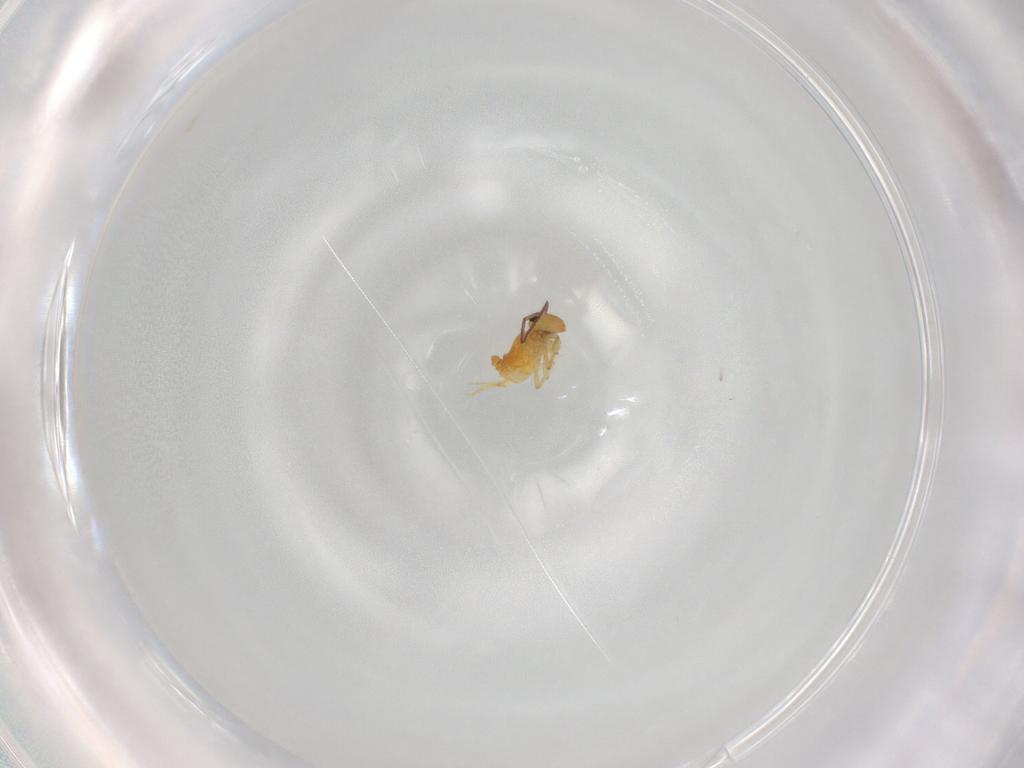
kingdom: Animalia
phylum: Arthropoda
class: Collembola
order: Symphypleona
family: Bourletiellidae
